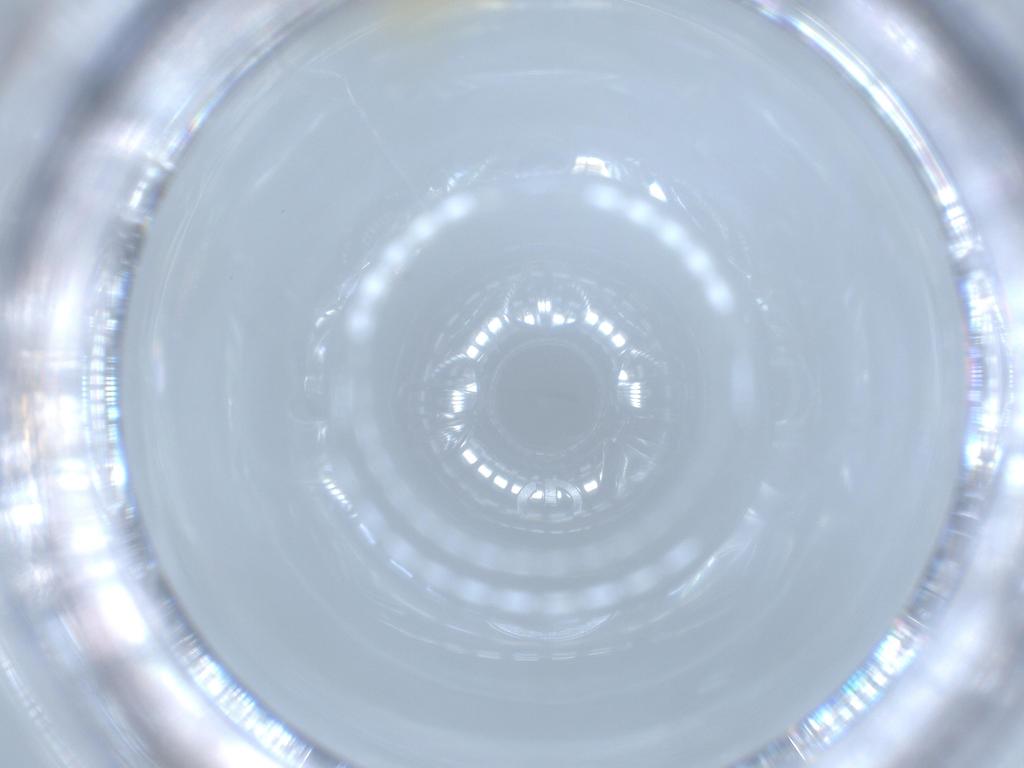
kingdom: Animalia
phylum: Arthropoda
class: Insecta
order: Diptera
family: Chironomidae
